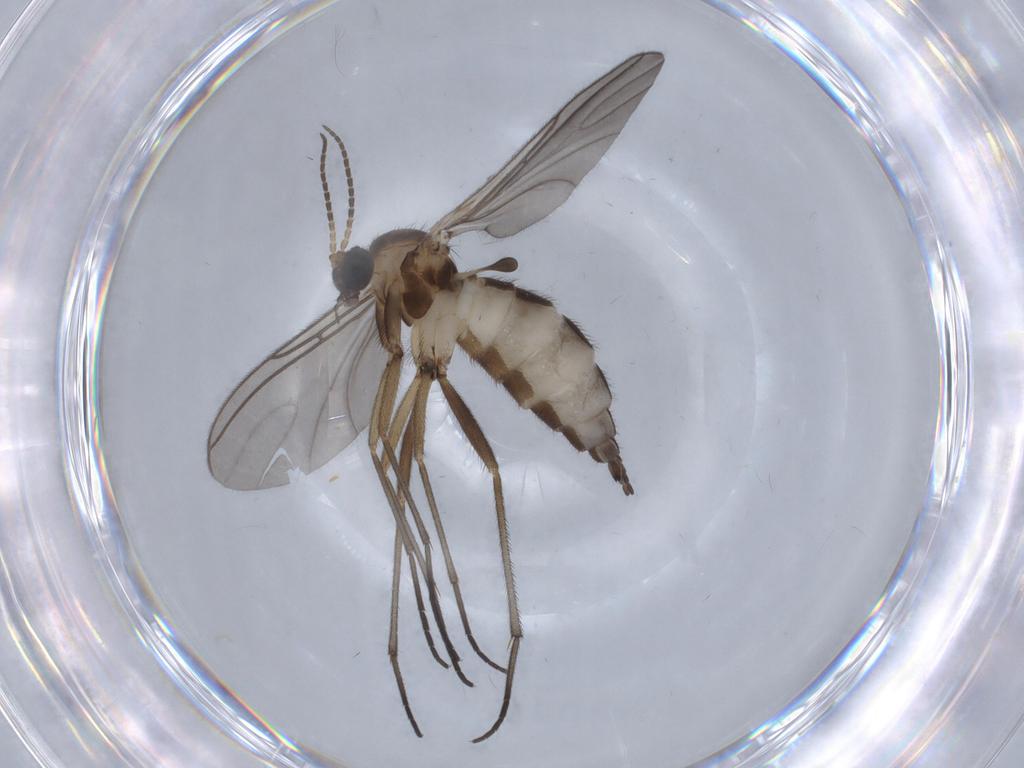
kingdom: Animalia
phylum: Arthropoda
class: Insecta
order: Diptera
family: Sciaridae
